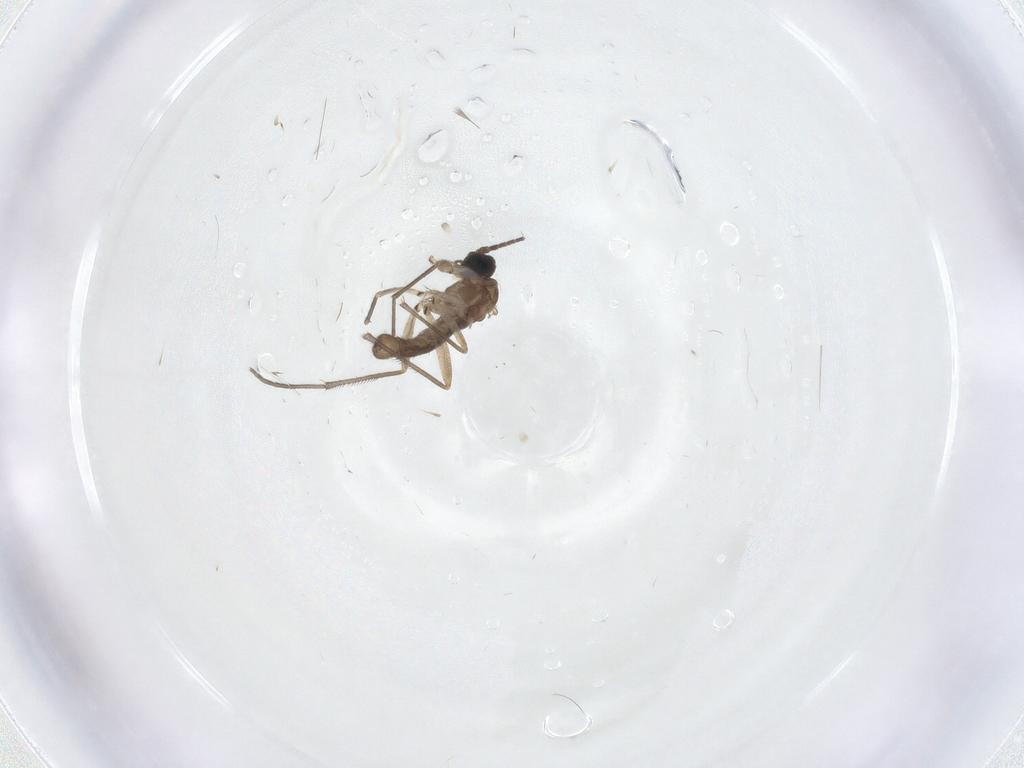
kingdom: Animalia
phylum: Arthropoda
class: Insecta
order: Diptera
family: Sciaridae
